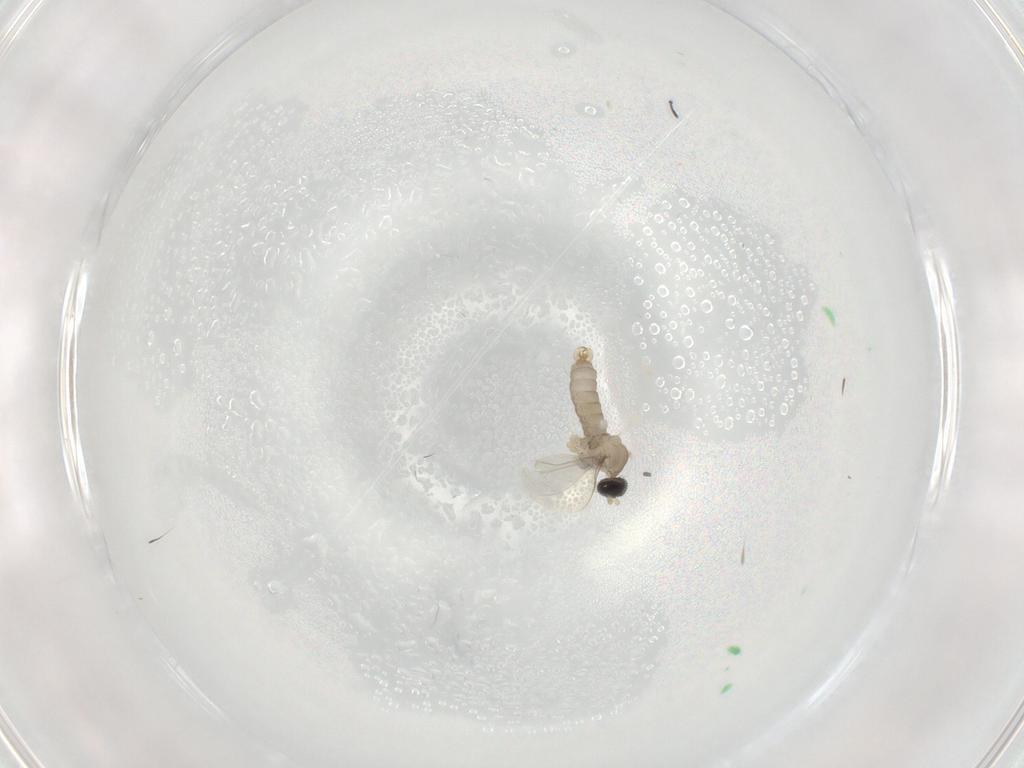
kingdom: Animalia
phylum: Arthropoda
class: Insecta
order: Diptera
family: Cecidomyiidae
